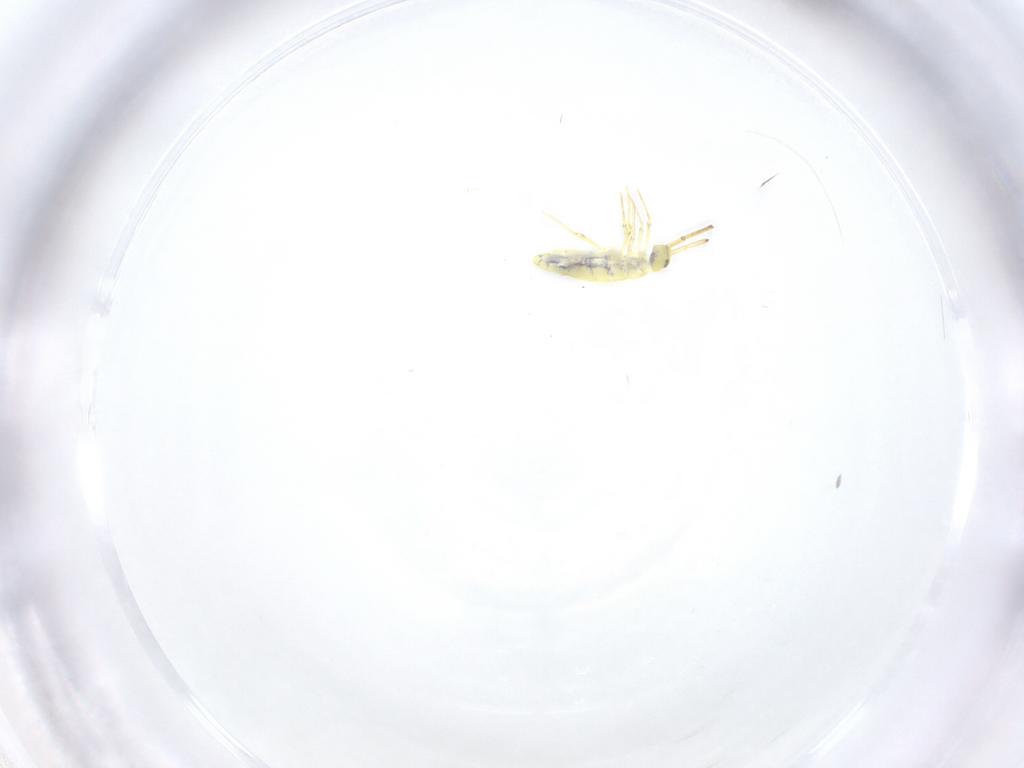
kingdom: Animalia
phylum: Arthropoda
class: Collembola
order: Entomobryomorpha
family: Entomobryidae
